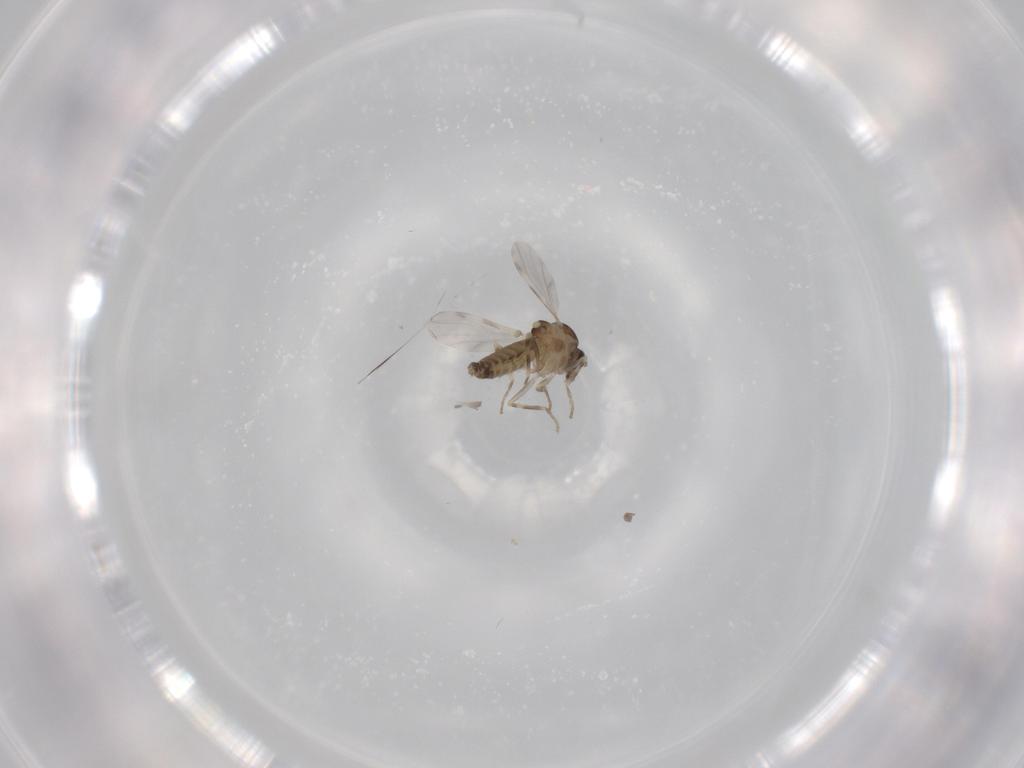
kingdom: Animalia
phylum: Arthropoda
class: Insecta
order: Diptera
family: Ceratopogonidae
